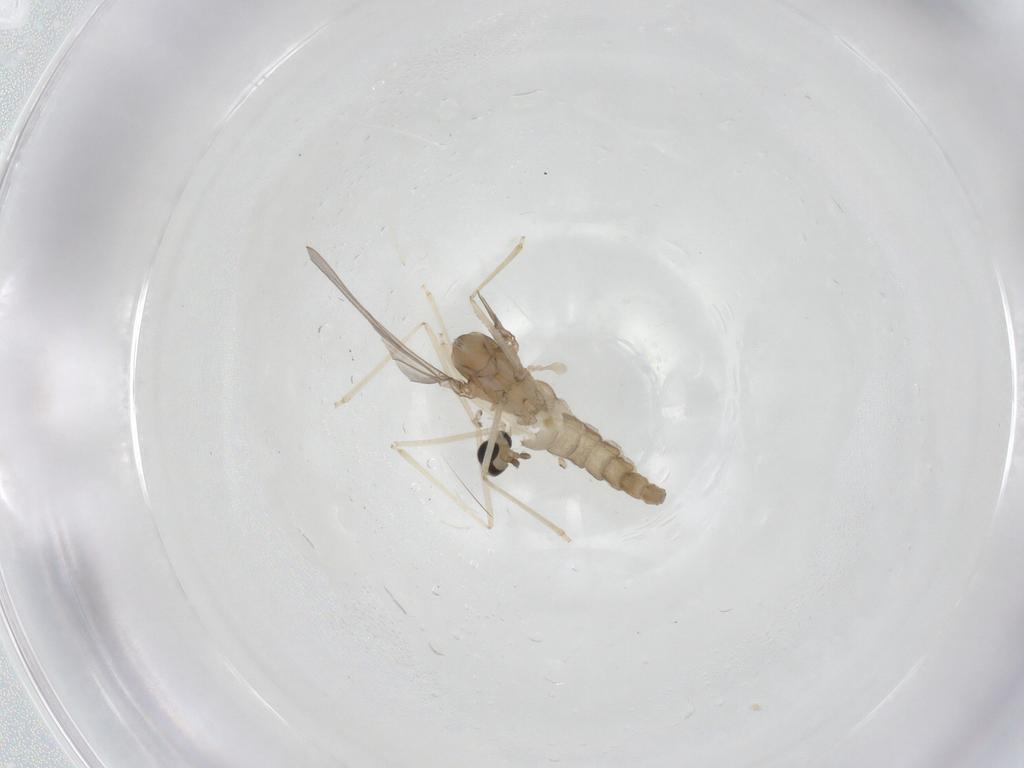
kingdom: Animalia
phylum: Arthropoda
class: Insecta
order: Diptera
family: Cecidomyiidae
